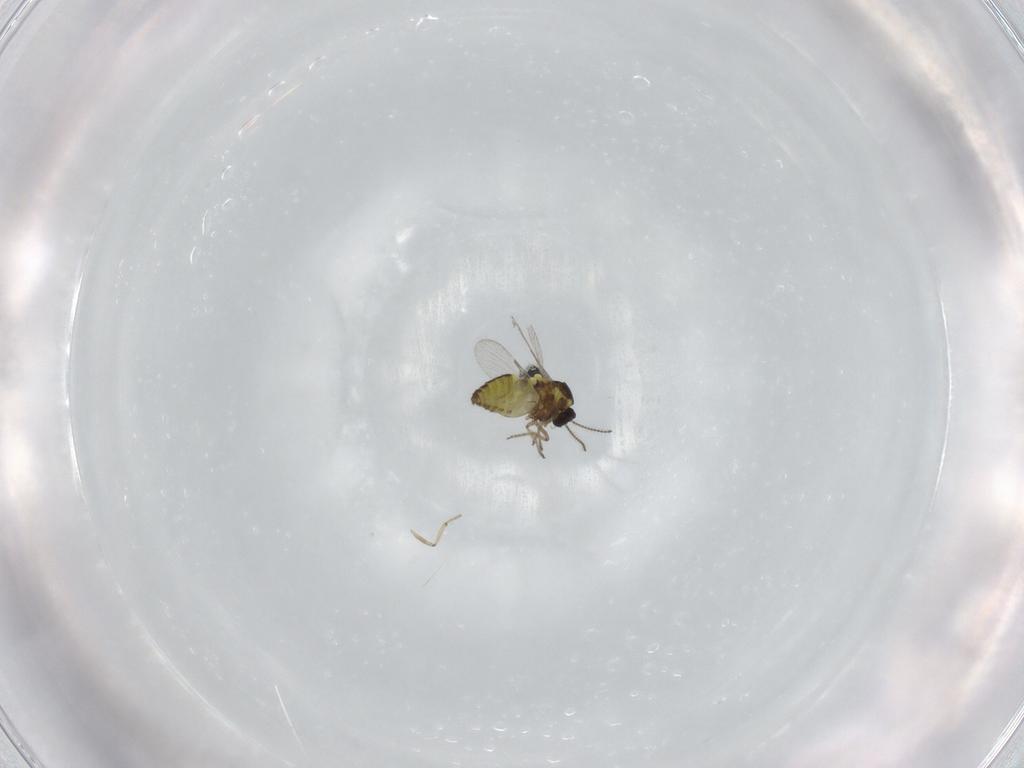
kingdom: Animalia
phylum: Arthropoda
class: Insecta
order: Diptera
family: Ceratopogonidae
